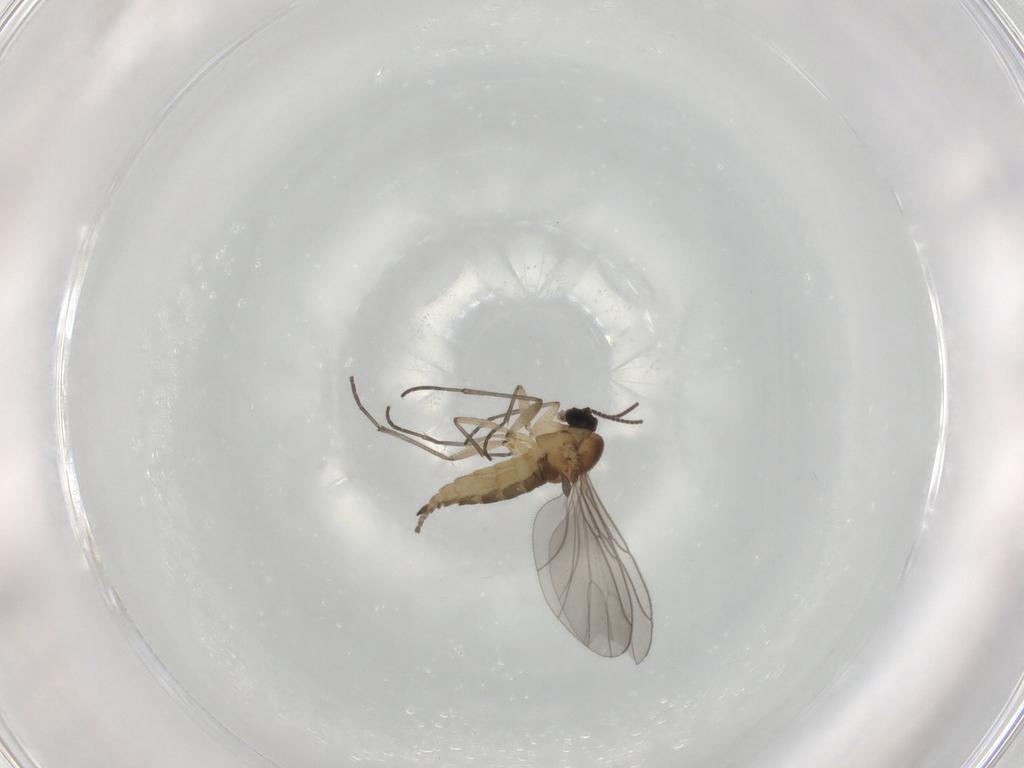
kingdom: Animalia
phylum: Arthropoda
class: Insecta
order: Diptera
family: Sciaridae
